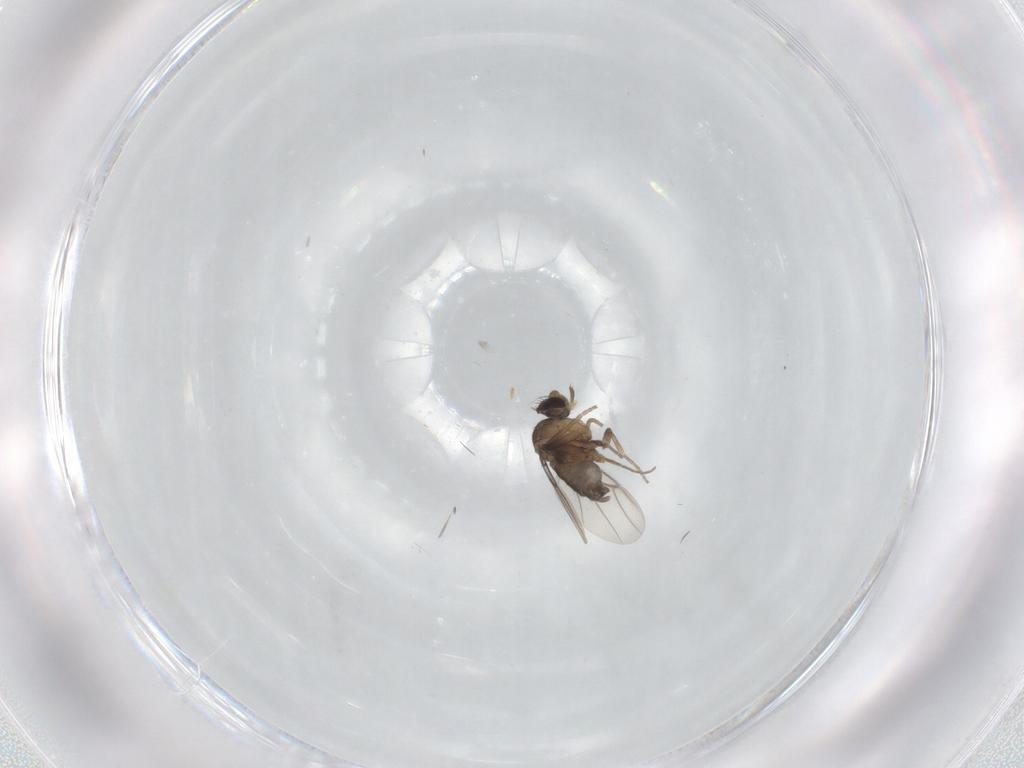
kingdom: Animalia
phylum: Arthropoda
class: Insecta
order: Diptera
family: Phoridae
